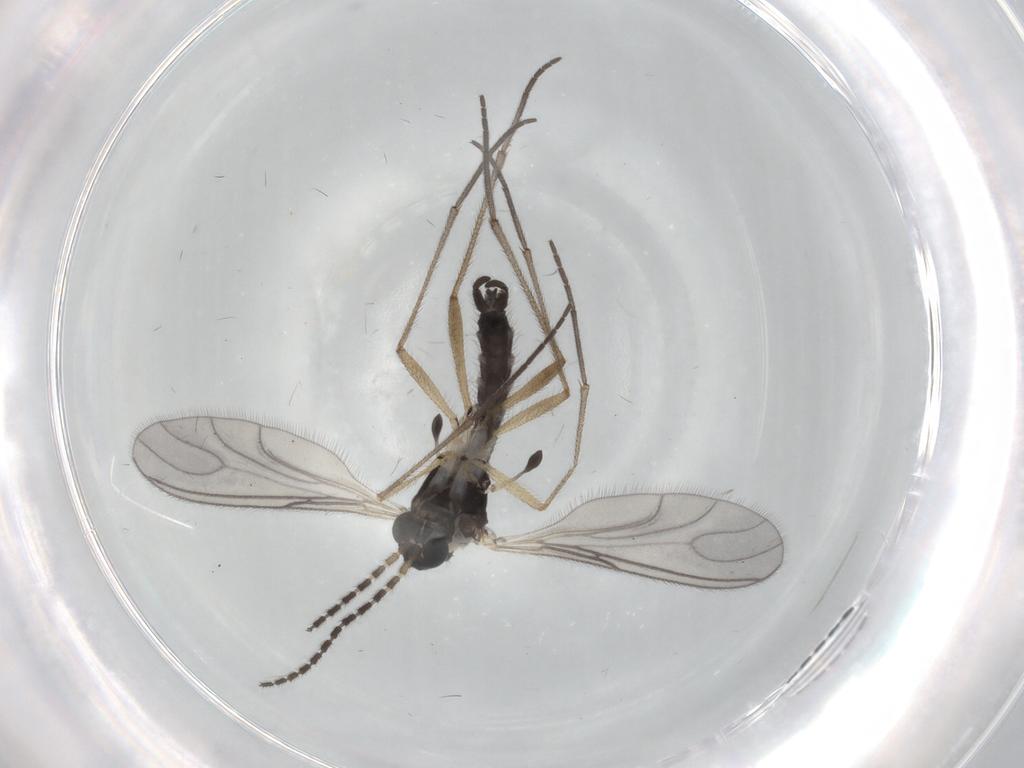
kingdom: Animalia
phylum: Arthropoda
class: Insecta
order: Diptera
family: Sciaridae
